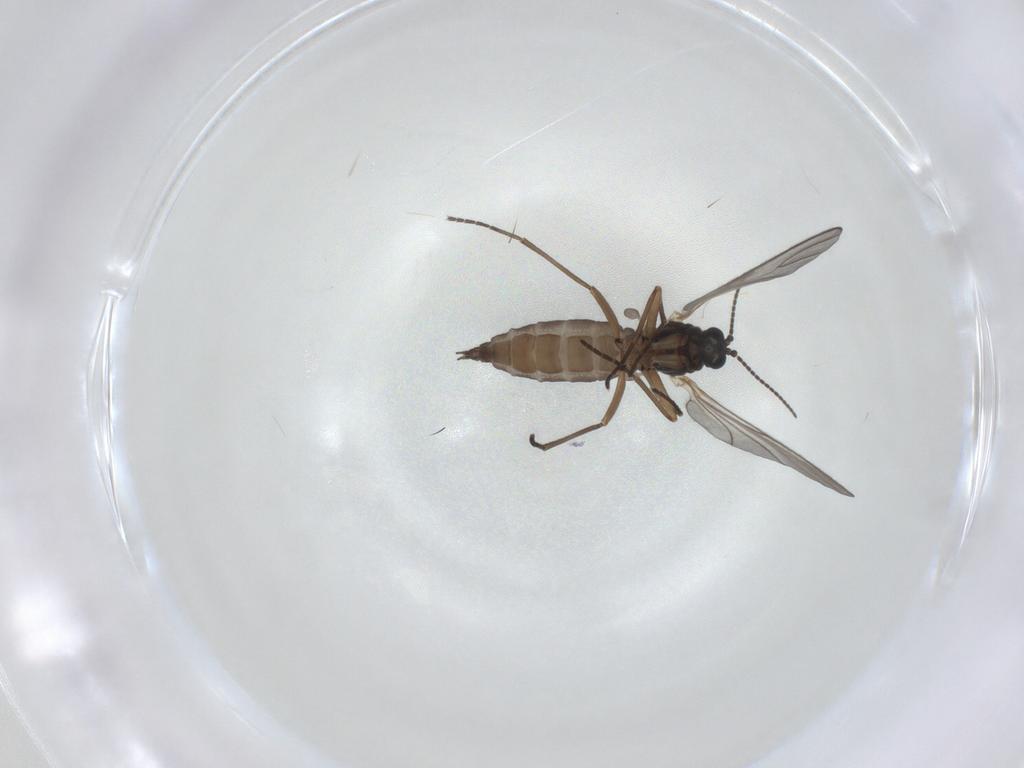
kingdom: Animalia
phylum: Arthropoda
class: Insecta
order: Diptera
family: Sciaridae
